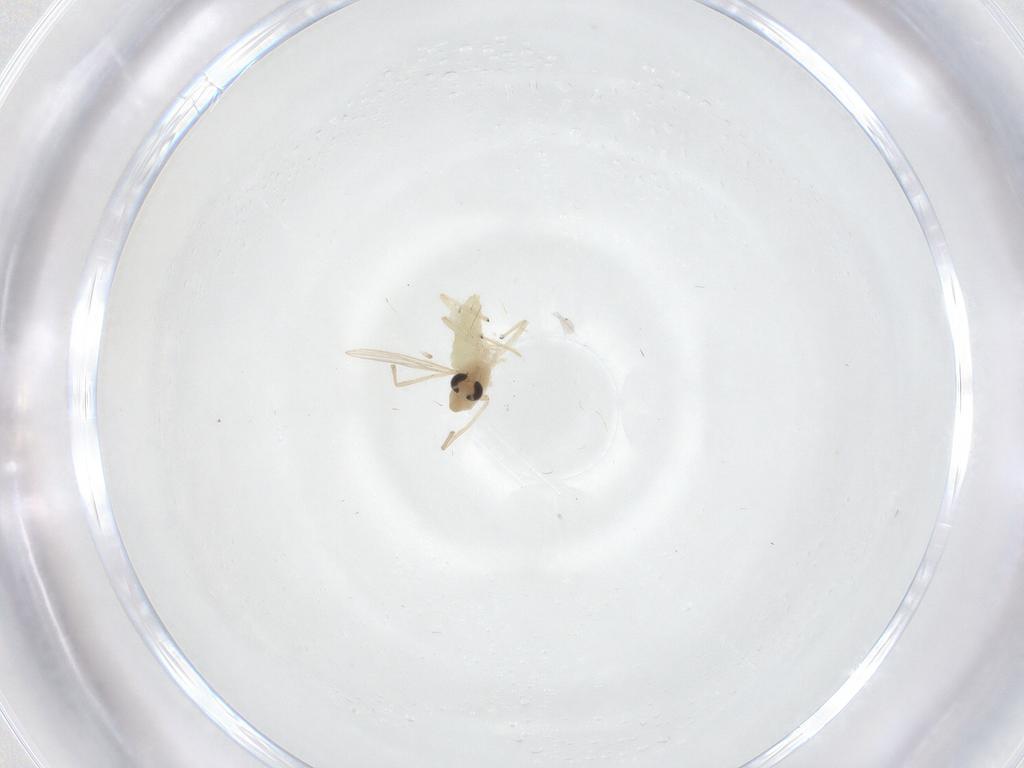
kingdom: Animalia
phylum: Arthropoda
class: Insecta
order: Diptera
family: Chironomidae
